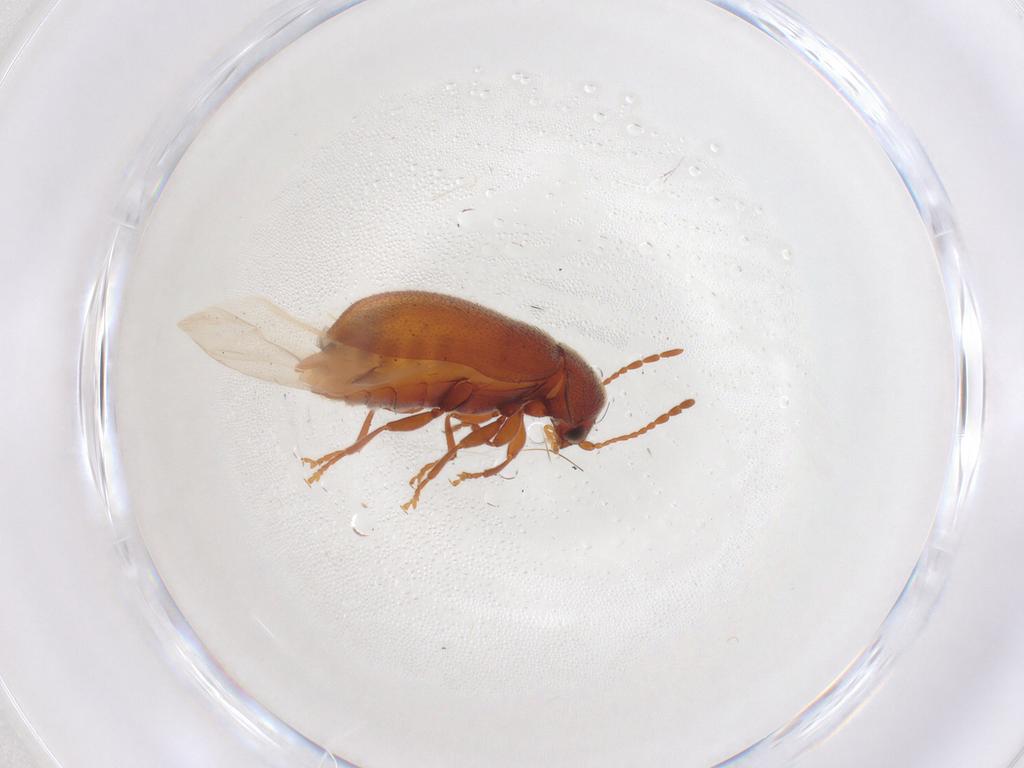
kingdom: Animalia
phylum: Arthropoda
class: Insecta
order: Coleoptera
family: Ptinidae
